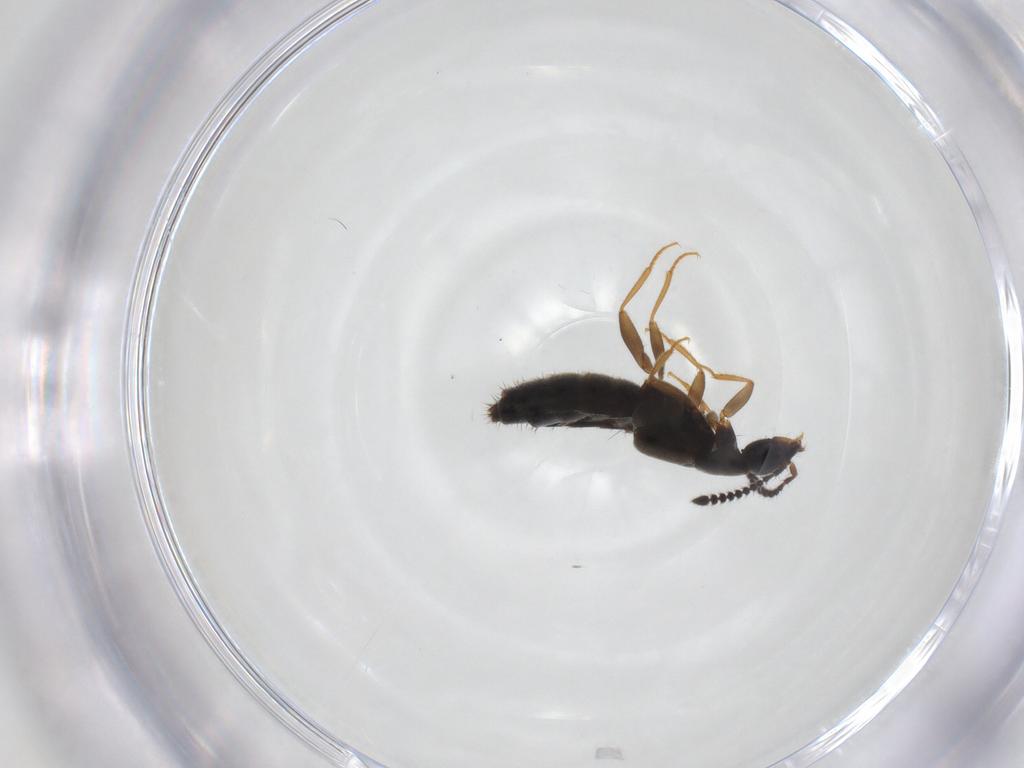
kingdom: Animalia
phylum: Arthropoda
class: Insecta
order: Coleoptera
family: Staphylinidae
